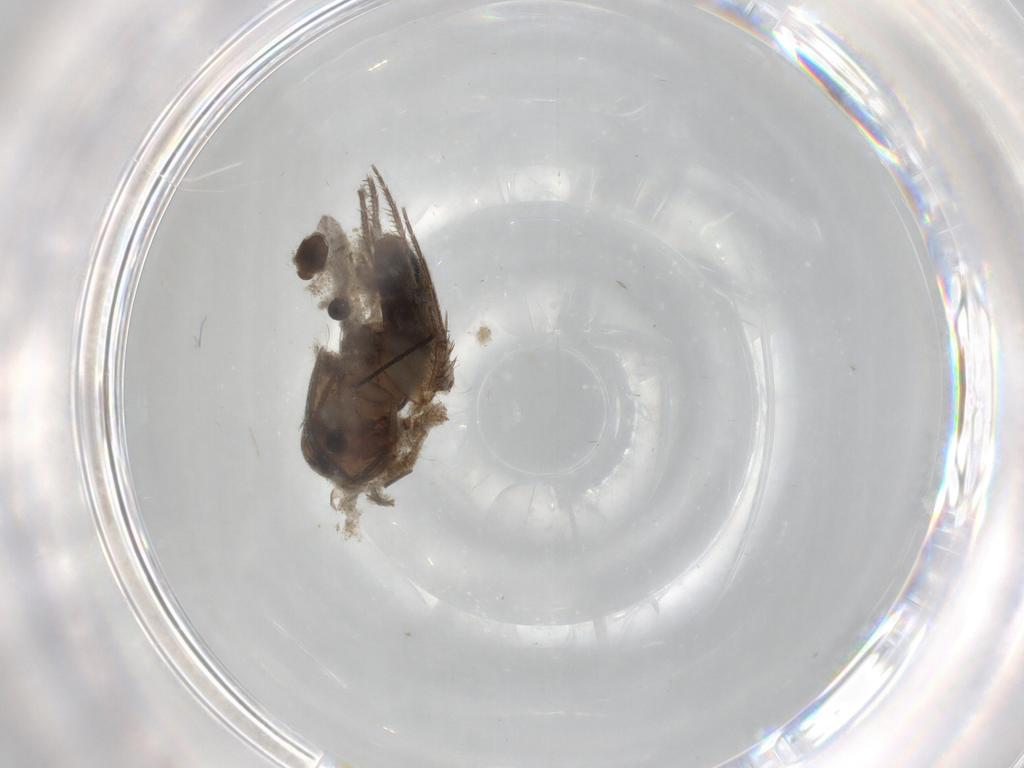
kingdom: Animalia
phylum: Arthropoda
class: Insecta
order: Diptera
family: Mycetophilidae
